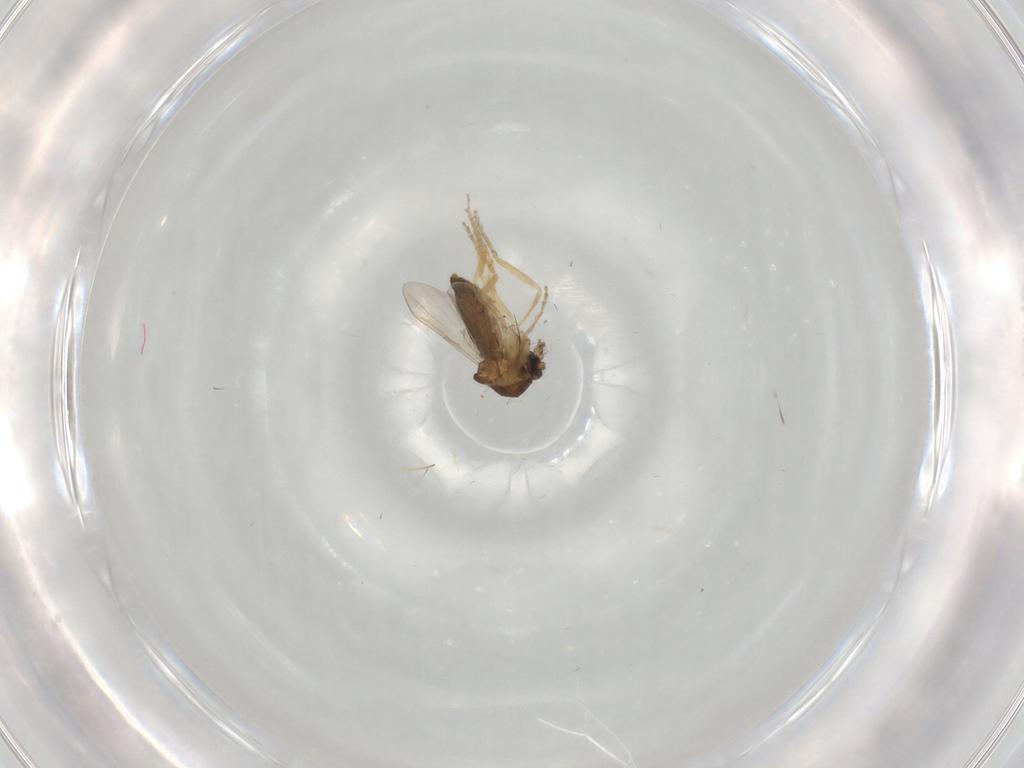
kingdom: Animalia
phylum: Arthropoda
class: Insecta
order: Diptera
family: Ceratopogonidae
